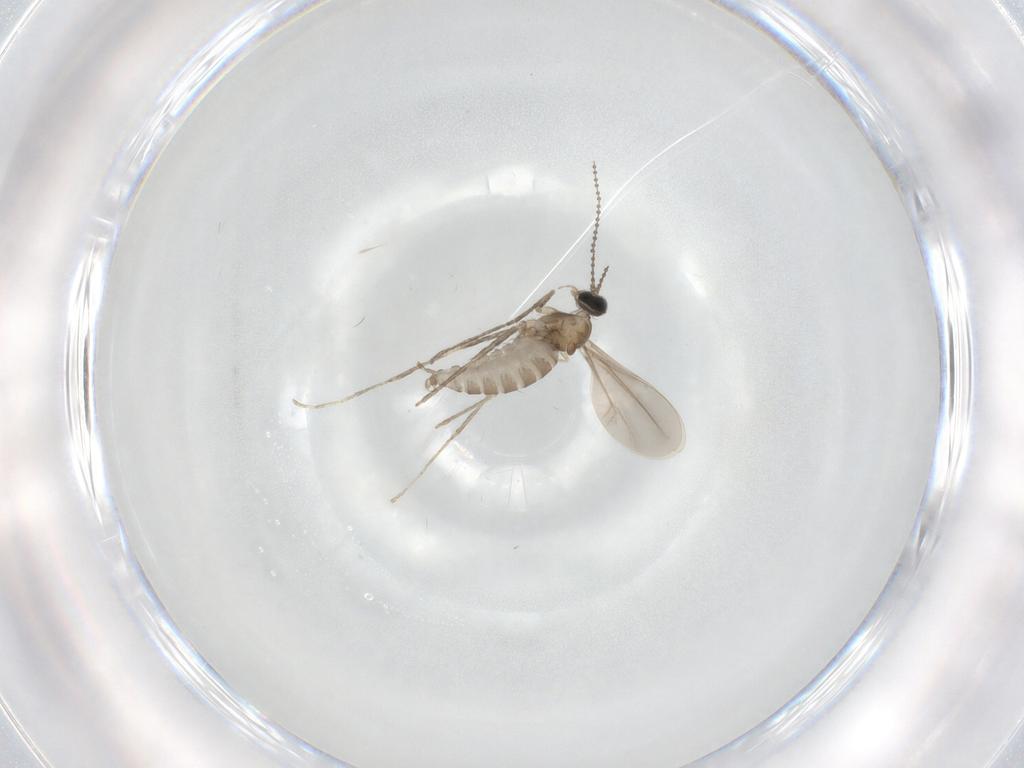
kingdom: Animalia
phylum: Arthropoda
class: Insecta
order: Diptera
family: Cecidomyiidae
